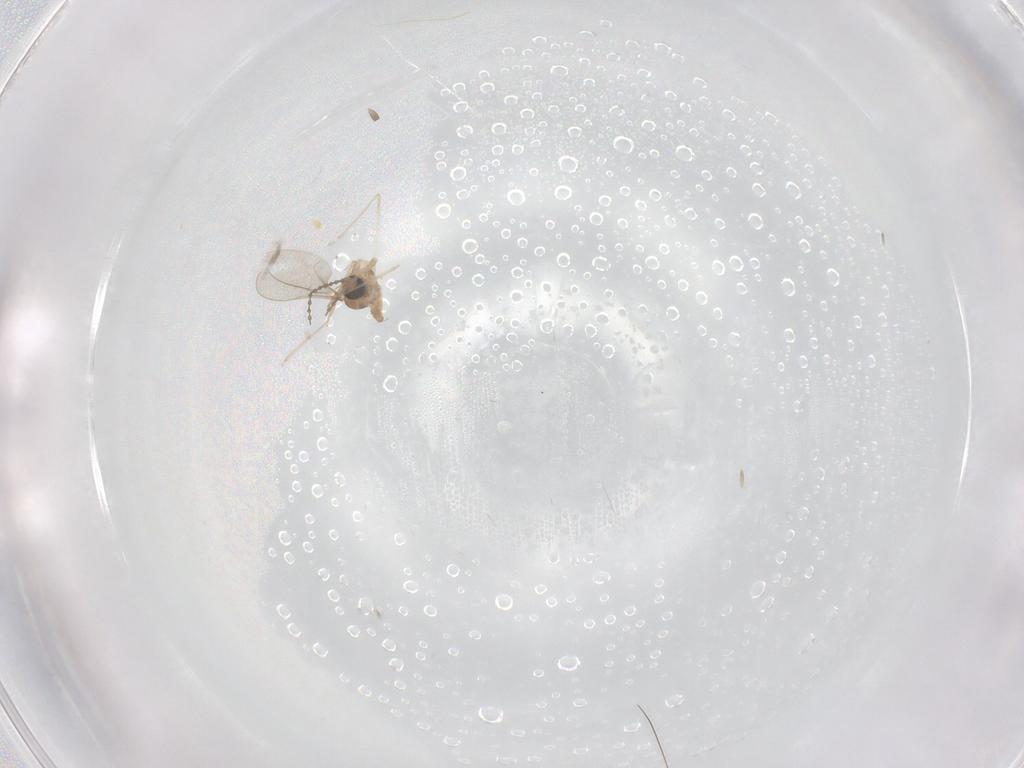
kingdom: Animalia
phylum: Arthropoda
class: Insecta
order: Diptera
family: Cecidomyiidae
